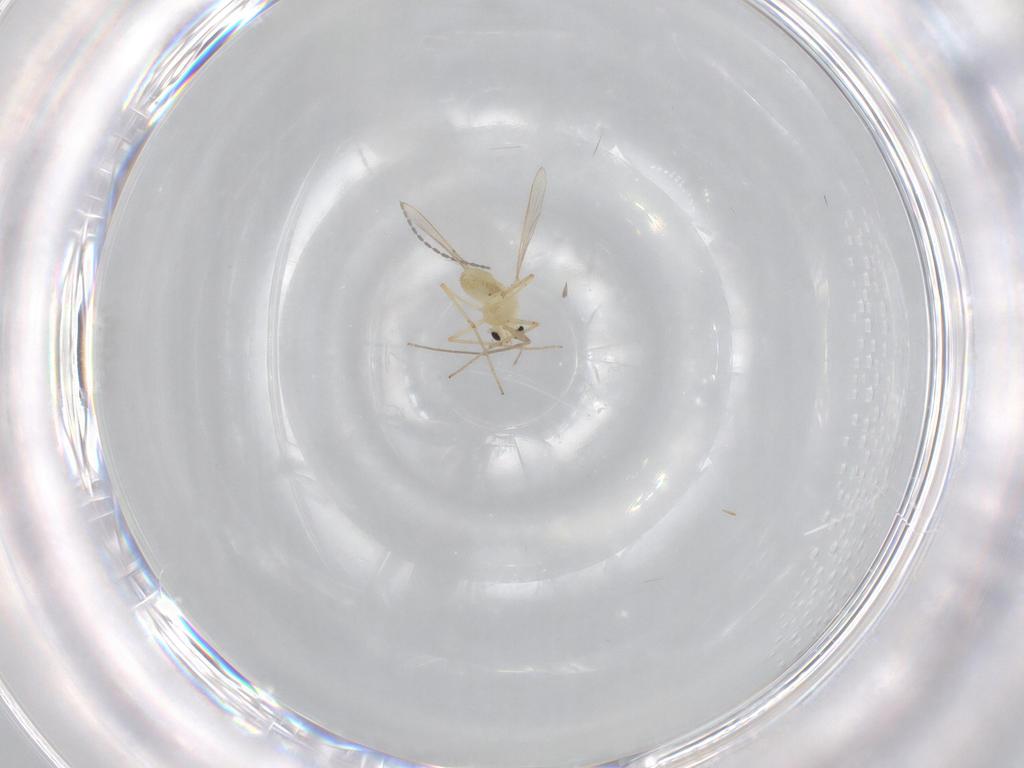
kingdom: Animalia
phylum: Arthropoda
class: Insecta
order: Diptera
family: Chironomidae
